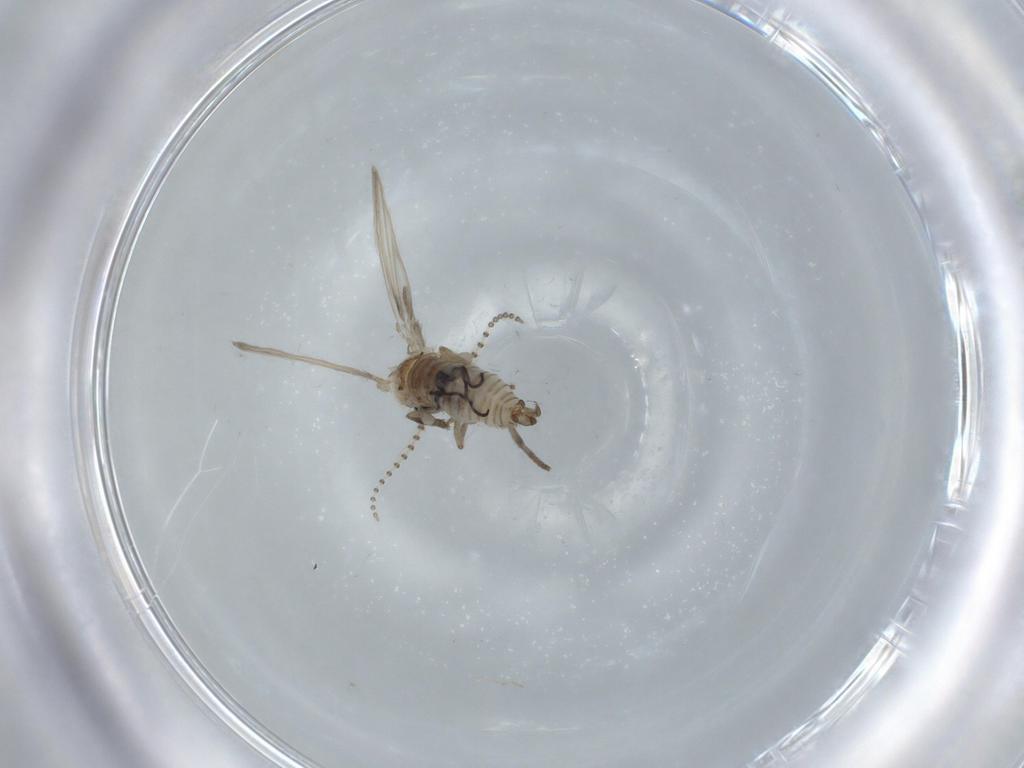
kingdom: Animalia
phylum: Arthropoda
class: Insecta
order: Diptera
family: Psychodidae
